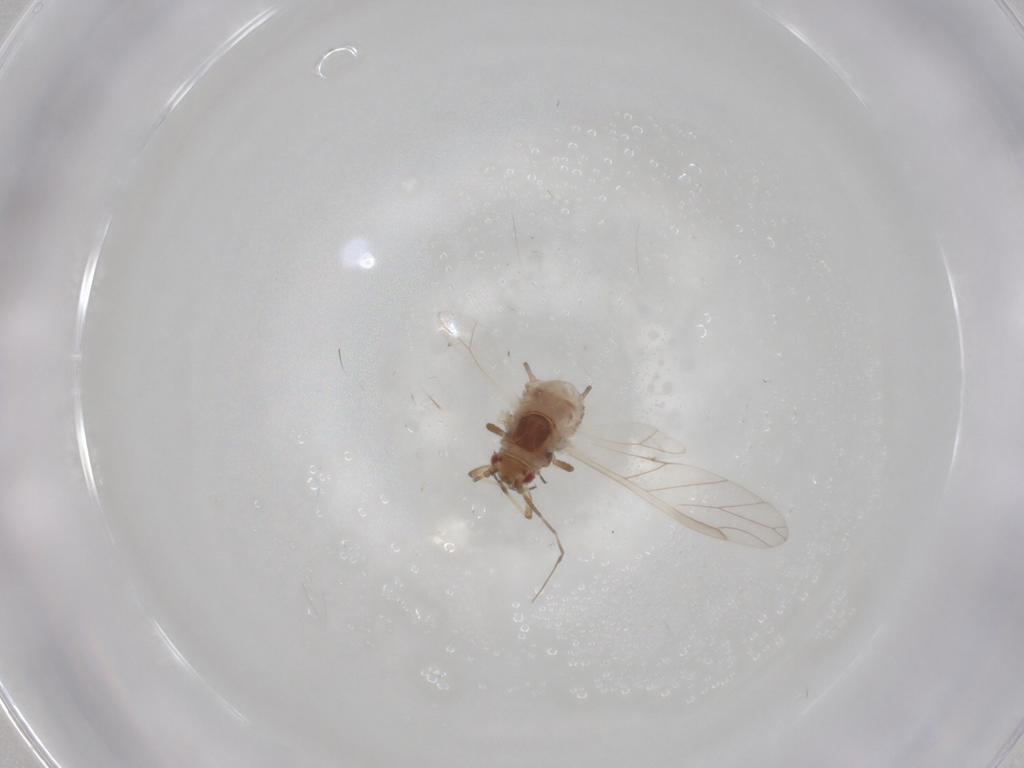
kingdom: Animalia
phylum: Arthropoda
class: Insecta
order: Hemiptera
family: Aphididae
